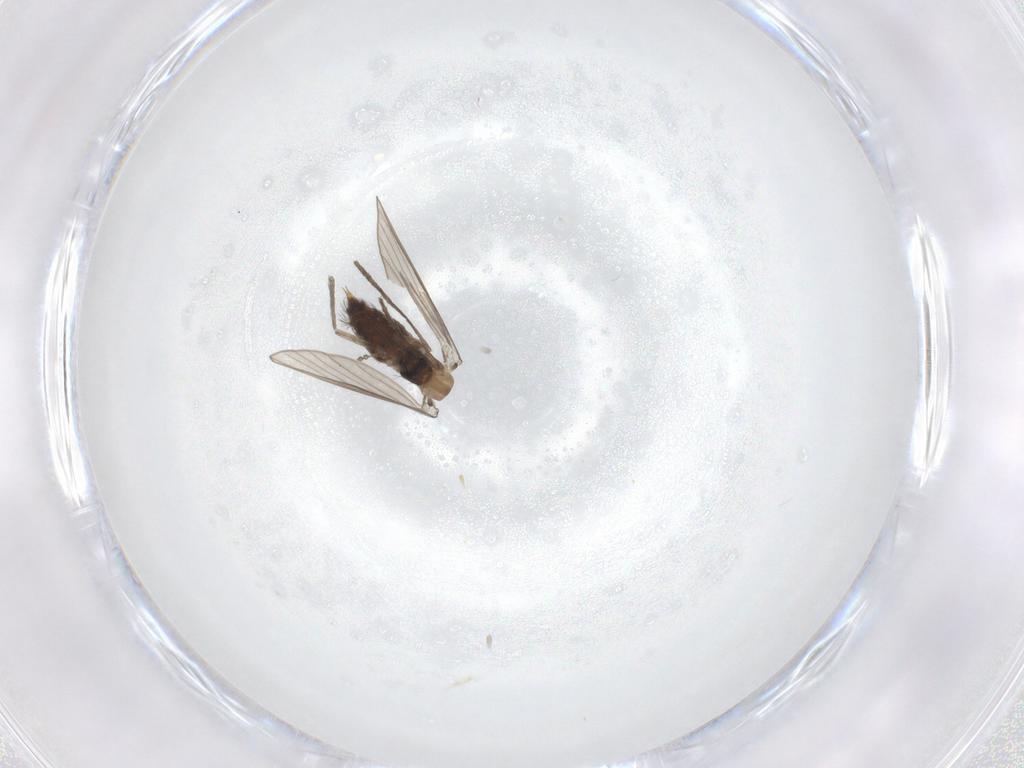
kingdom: Animalia
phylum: Arthropoda
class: Insecta
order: Diptera
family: Psychodidae
